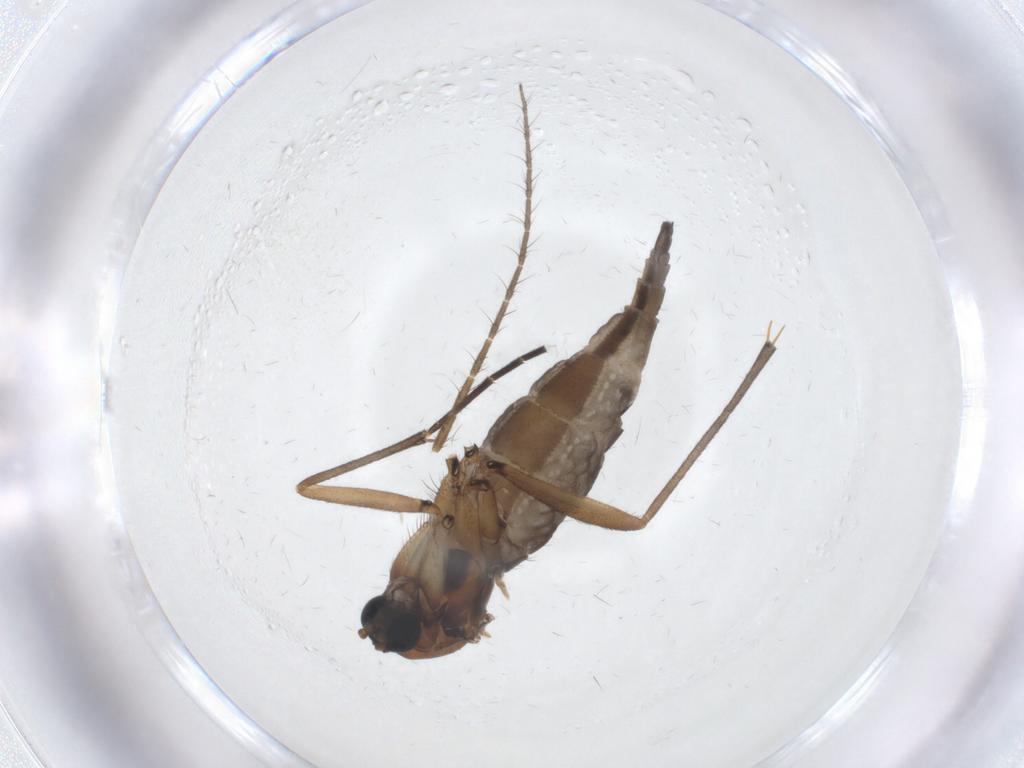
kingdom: Animalia
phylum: Arthropoda
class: Insecta
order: Diptera
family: Sciaridae
